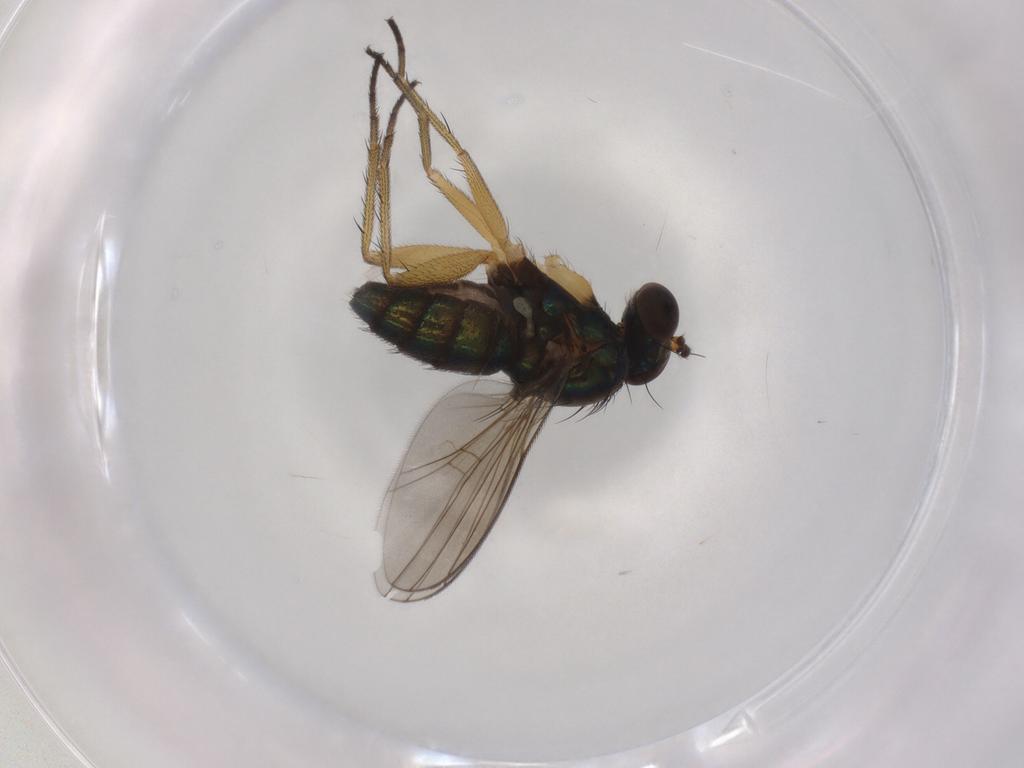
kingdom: Animalia
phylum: Arthropoda
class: Insecta
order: Diptera
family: Dolichopodidae
